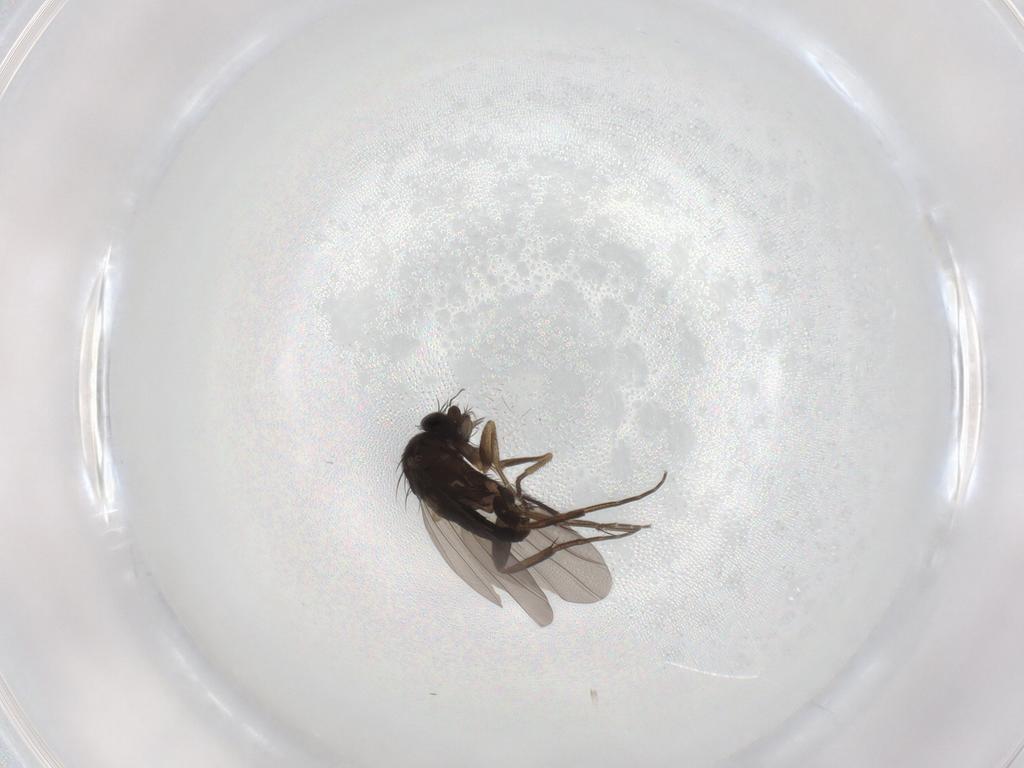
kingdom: Animalia
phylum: Arthropoda
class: Insecta
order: Diptera
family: Phoridae
